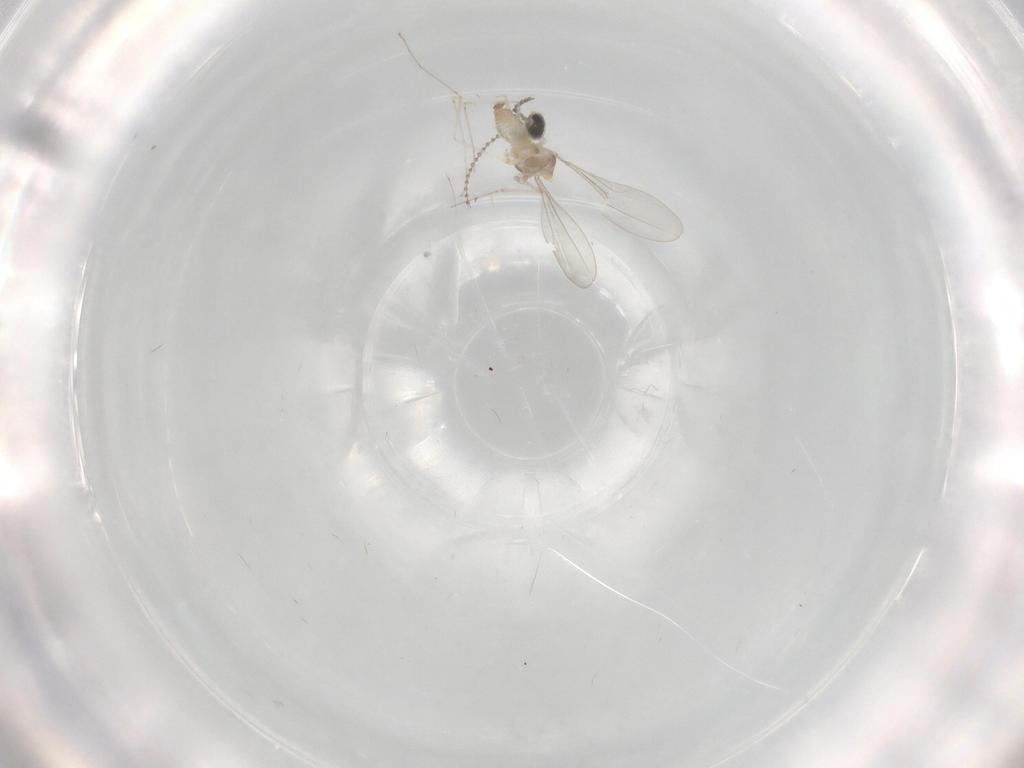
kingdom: Animalia
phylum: Arthropoda
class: Insecta
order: Diptera
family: Cecidomyiidae
